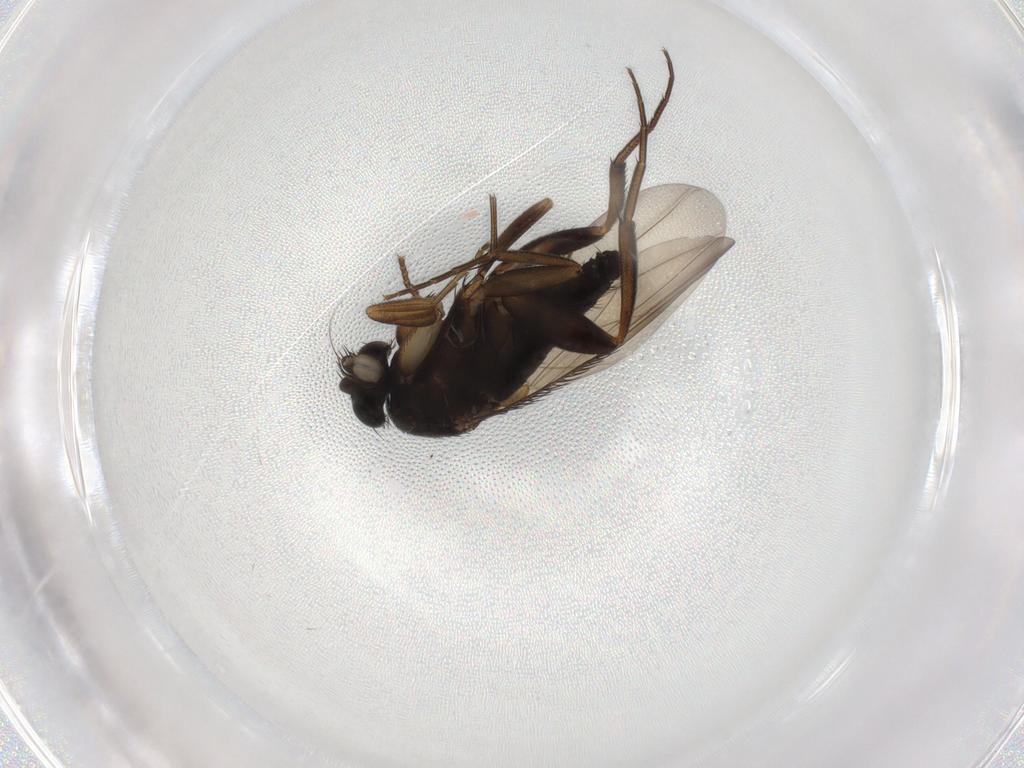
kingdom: Animalia
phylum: Arthropoda
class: Insecta
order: Diptera
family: Phoridae
